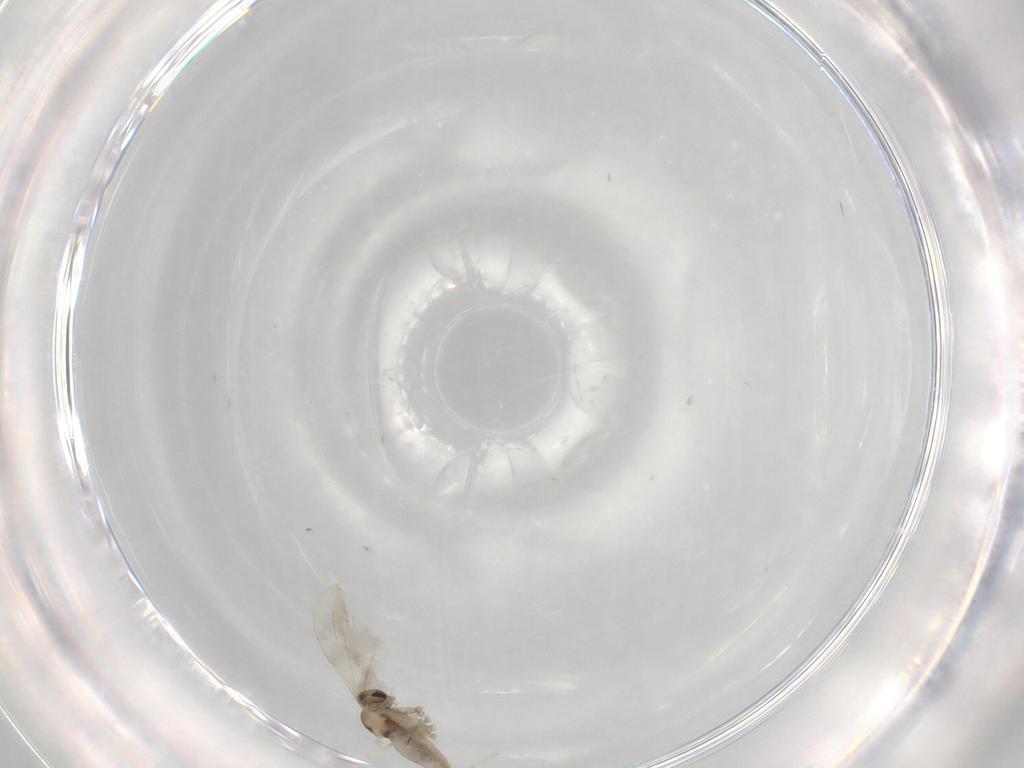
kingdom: Animalia
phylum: Arthropoda
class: Insecta
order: Diptera
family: Cecidomyiidae
